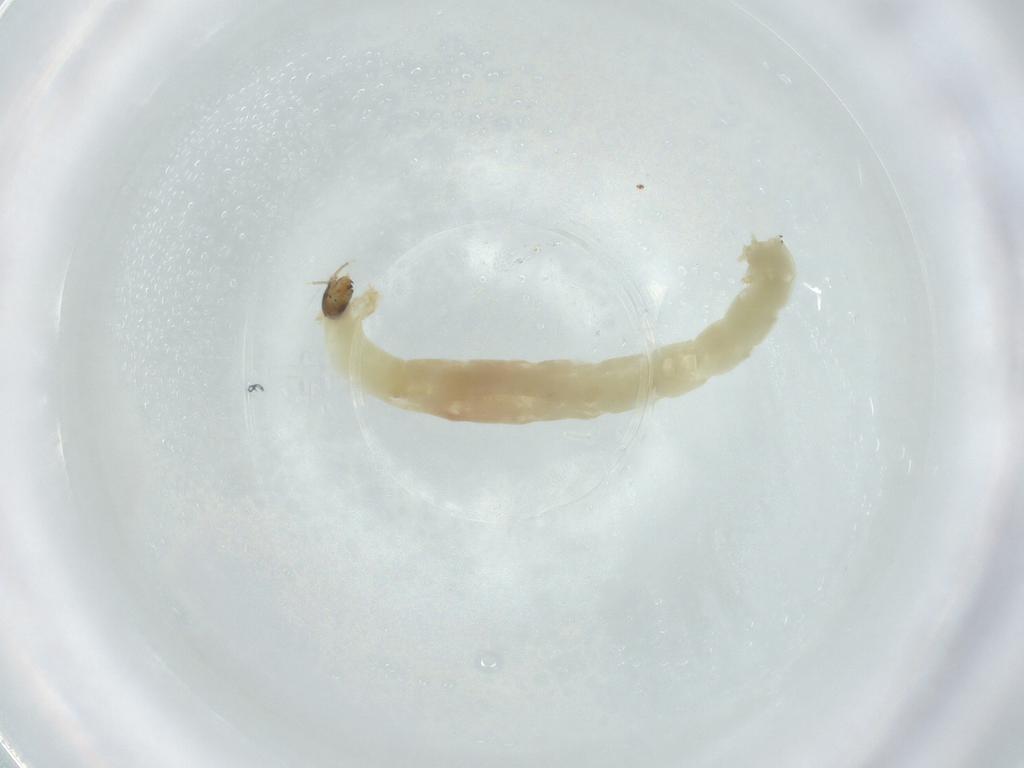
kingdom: Animalia
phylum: Arthropoda
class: Insecta
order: Diptera
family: Chironomidae
